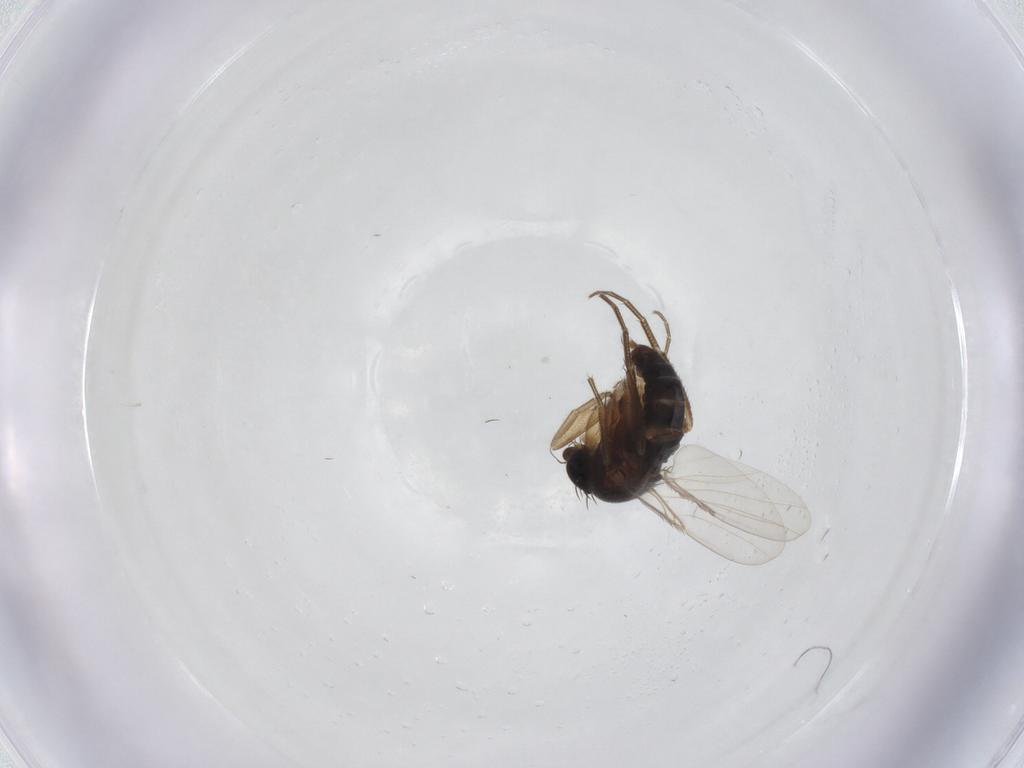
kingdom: Animalia
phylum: Arthropoda
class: Insecta
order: Diptera
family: Phoridae
